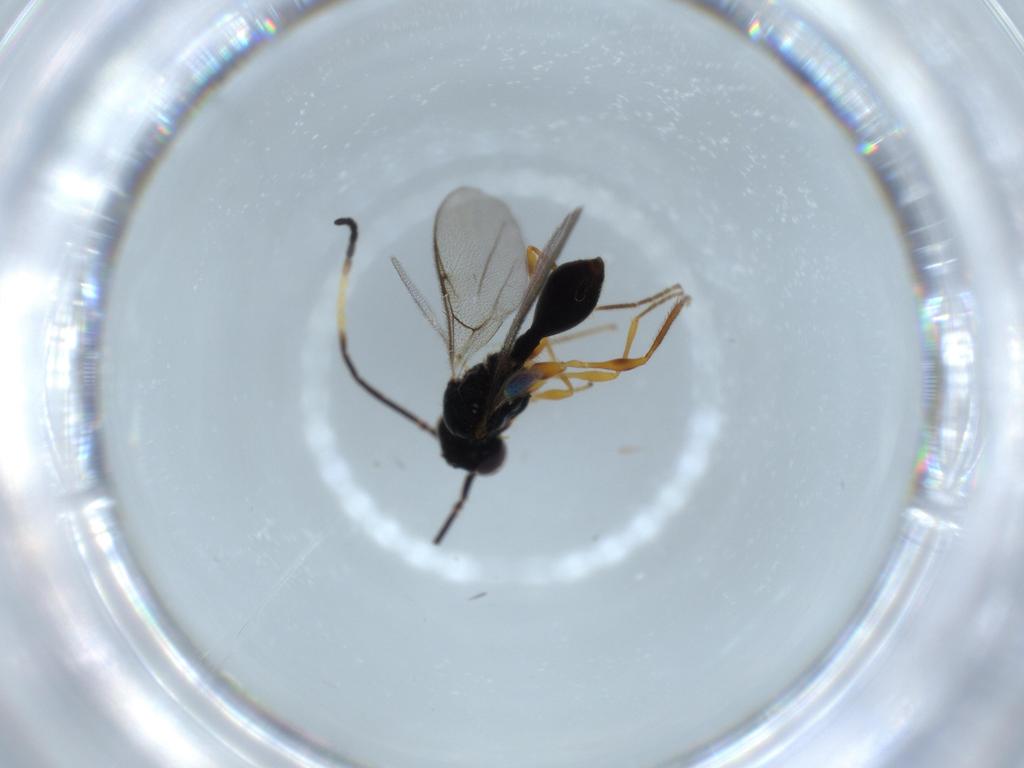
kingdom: Animalia
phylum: Arthropoda
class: Insecta
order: Hymenoptera
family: Diapriidae
